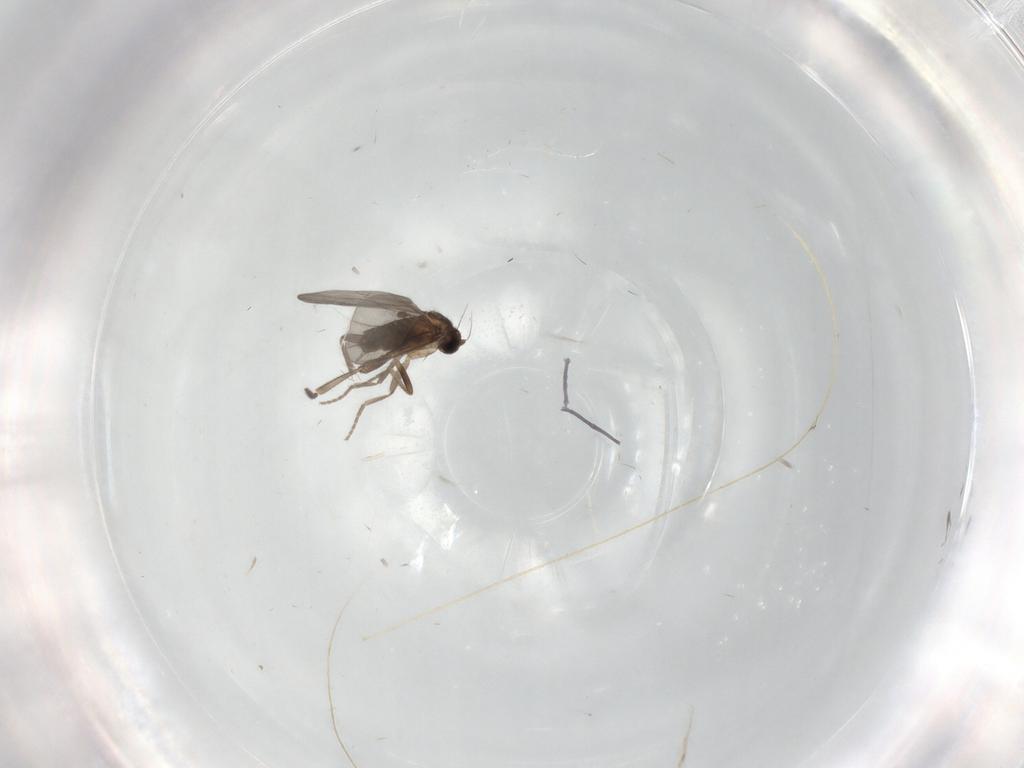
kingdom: Animalia
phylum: Arthropoda
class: Insecta
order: Diptera
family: Phoridae
